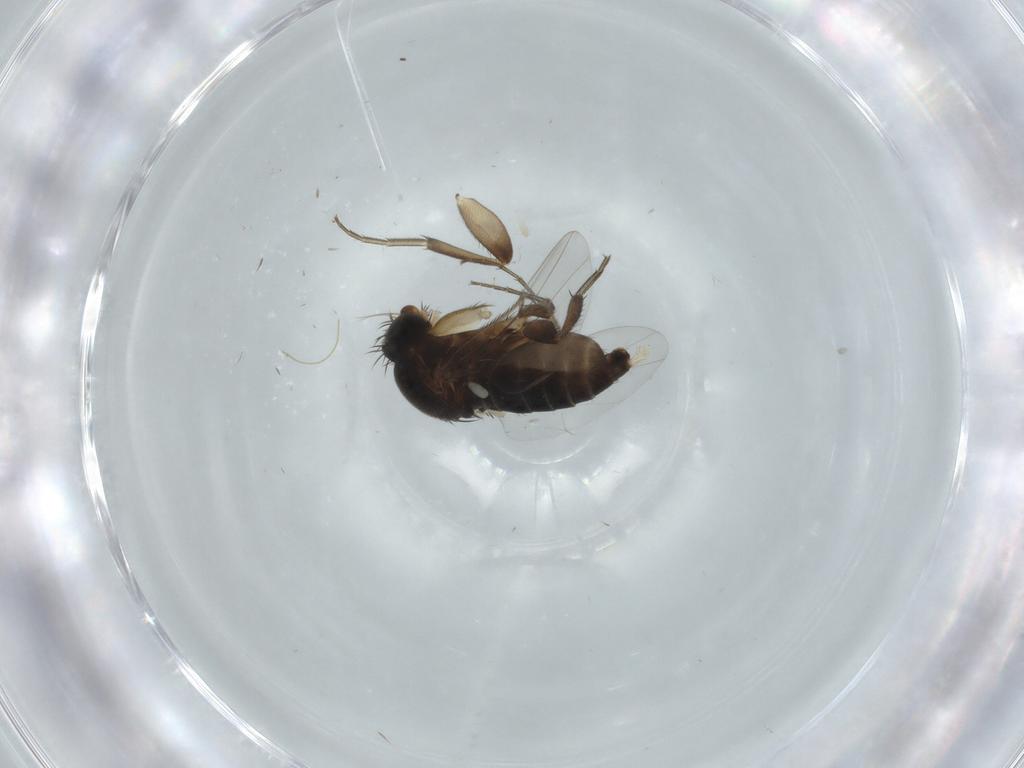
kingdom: Animalia
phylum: Arthropoda
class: Insecta
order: Diptera
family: Phoridae
